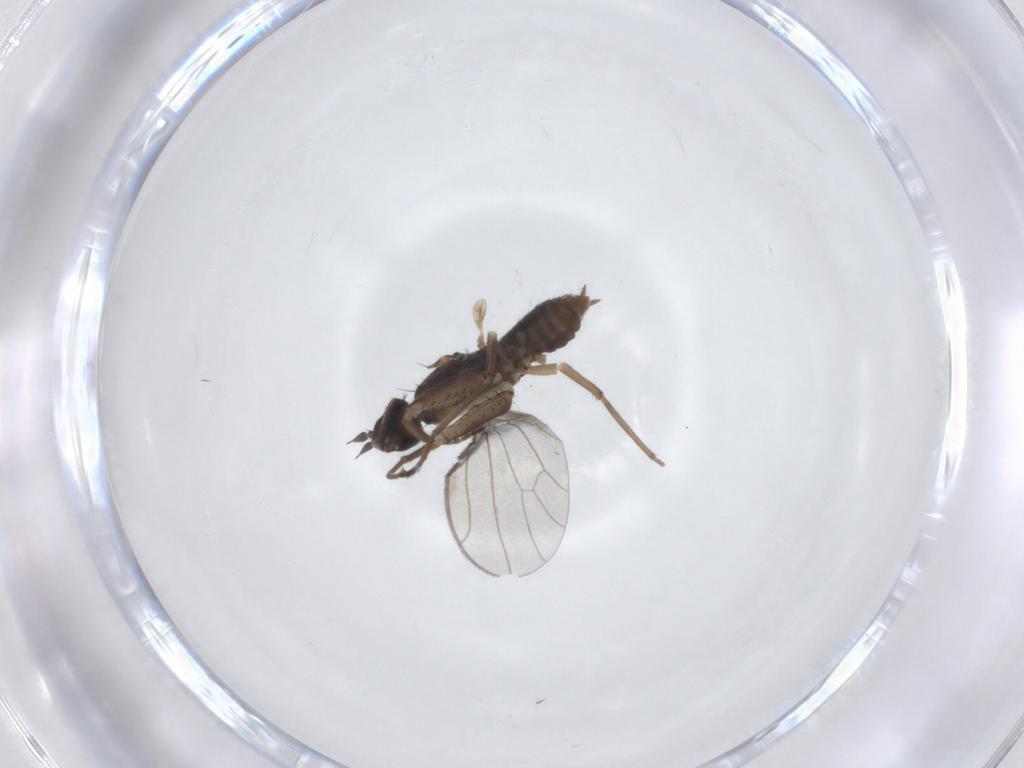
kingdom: Animalia
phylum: Arthropoda
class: Insecta
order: Diptera
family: Empididae
